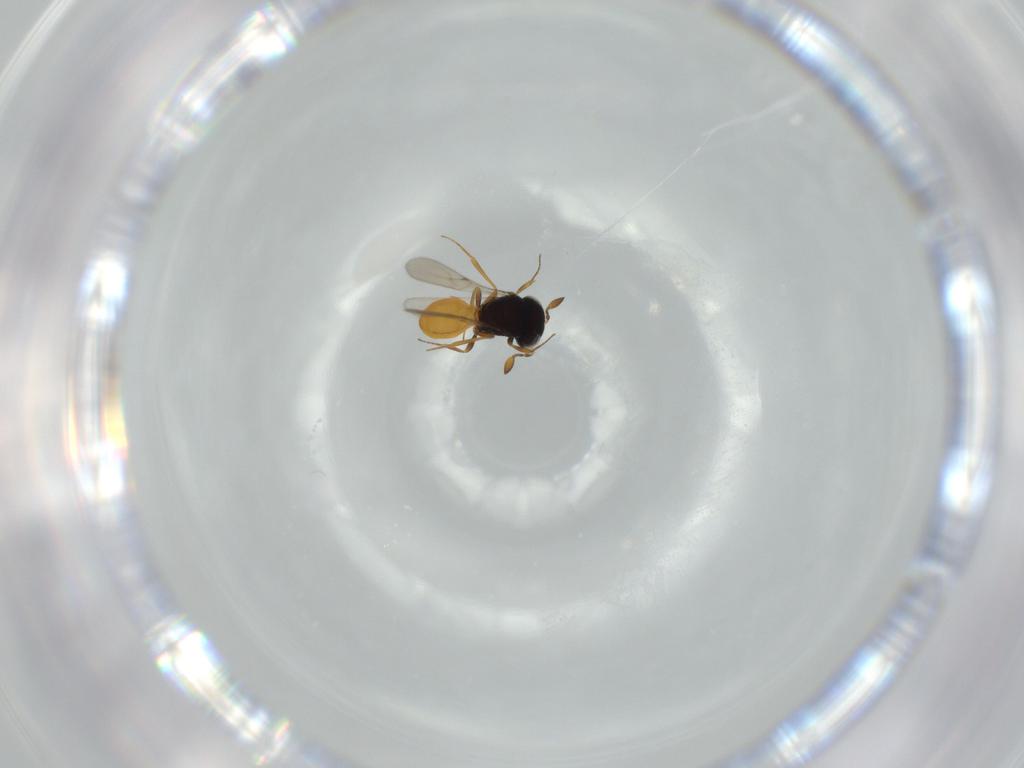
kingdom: Animalia
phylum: Arthropoda
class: Insecta
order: Hymenoptera
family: Scelionidae
